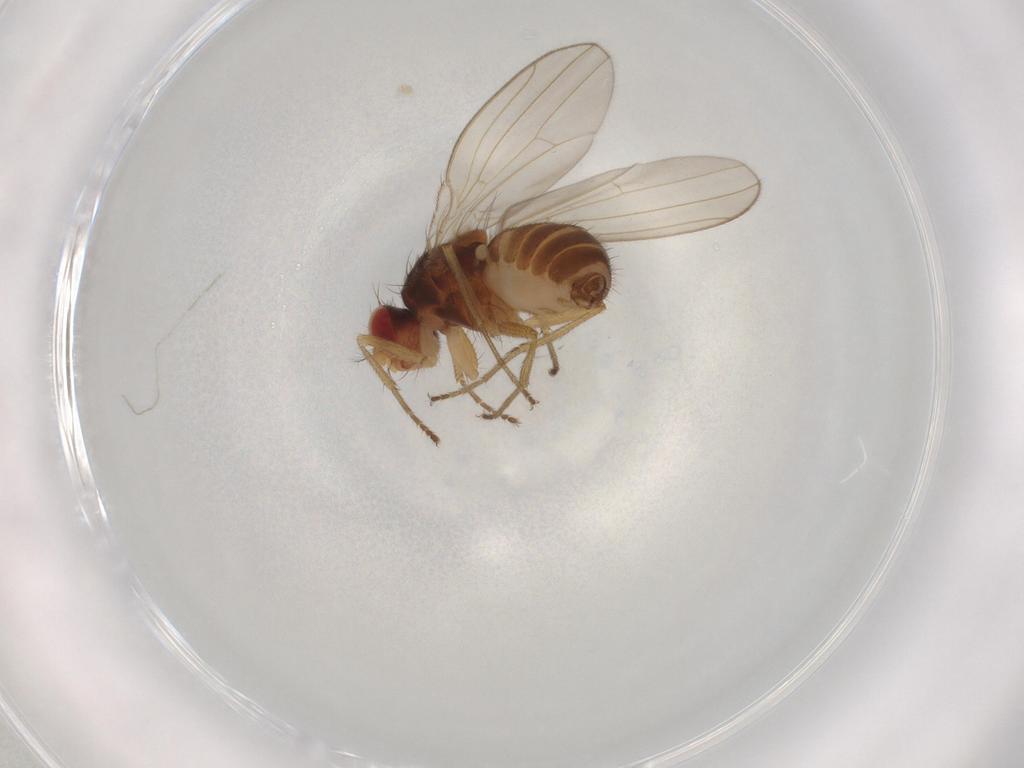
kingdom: Animalia
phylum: Arthropoda
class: Insecta
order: Diptera
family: Drosophilidae
